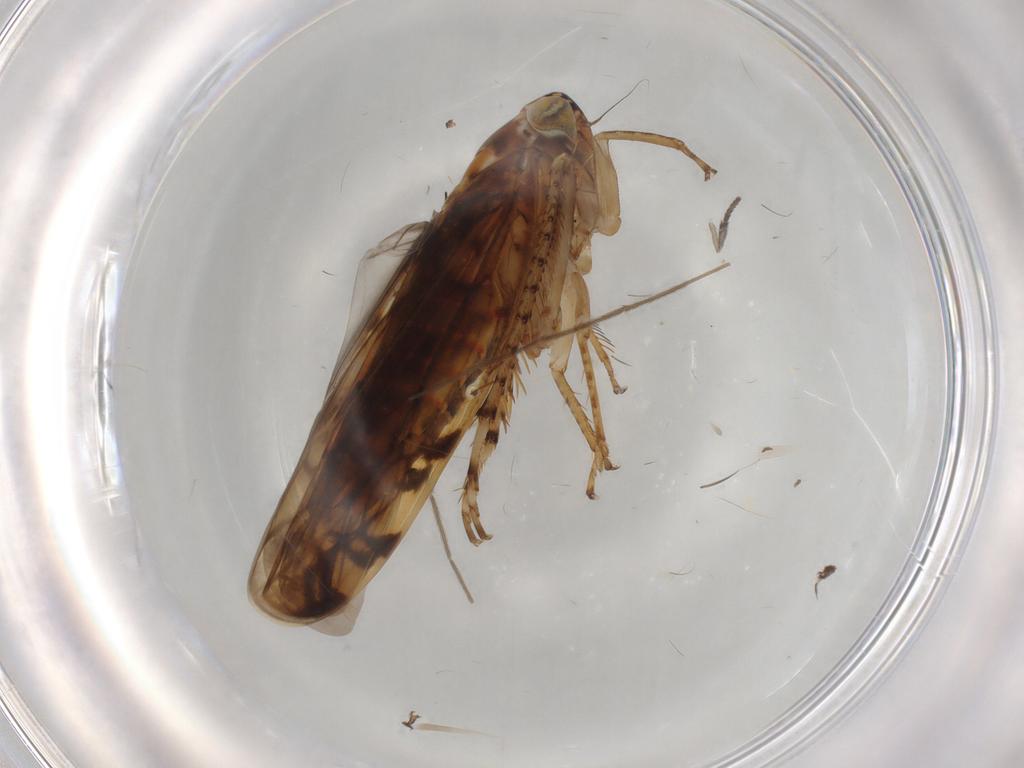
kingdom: Animalia
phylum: Arthropoda
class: Insecta
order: Hemiptera
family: Cicadellidae
